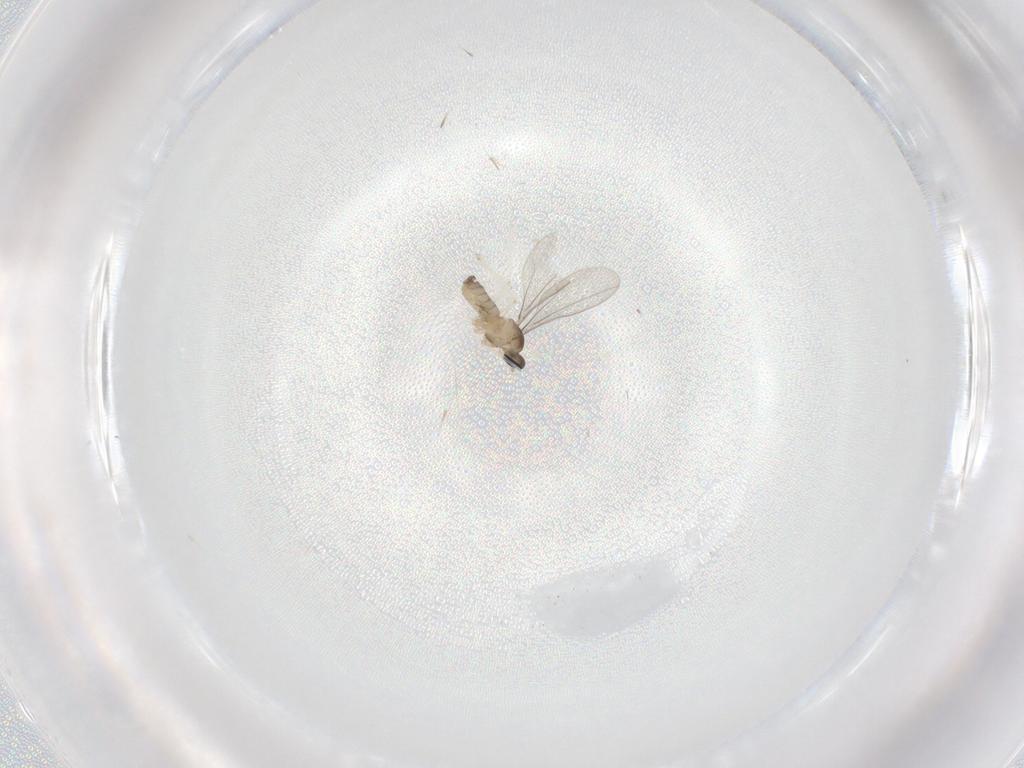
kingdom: Animalia
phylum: Arthropoda
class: Insecta
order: Diptera
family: Cecidomyiidae
